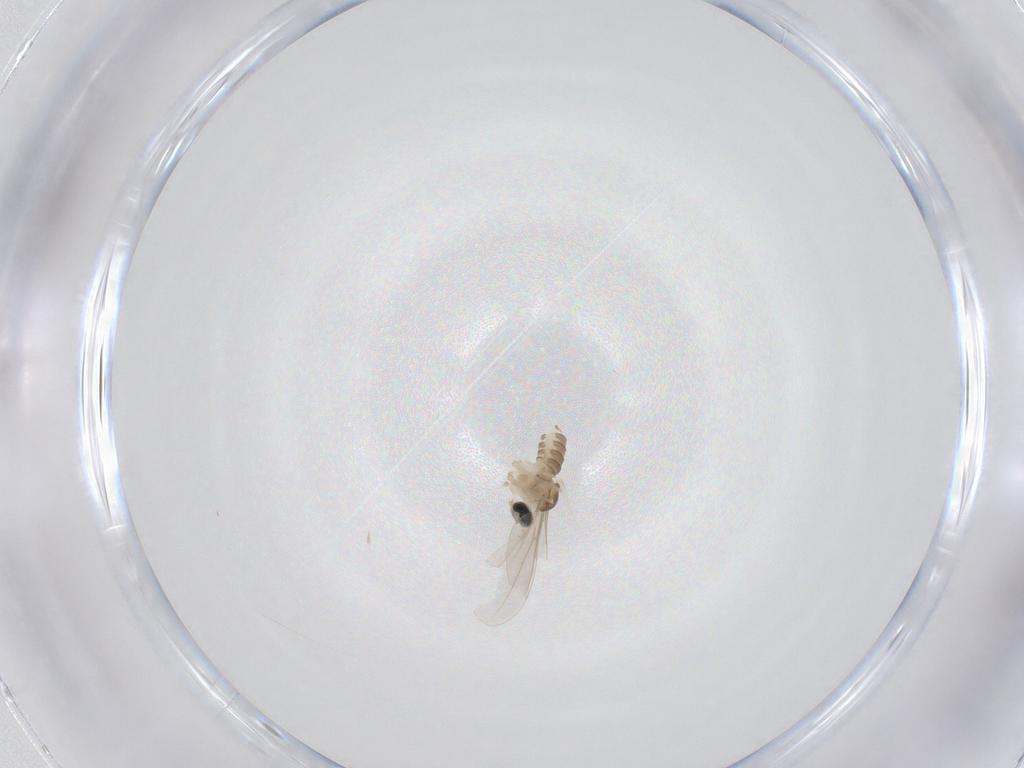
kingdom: Animalia
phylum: Arthropoda
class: Insecta
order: Diptera
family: Cecidomyiidae
